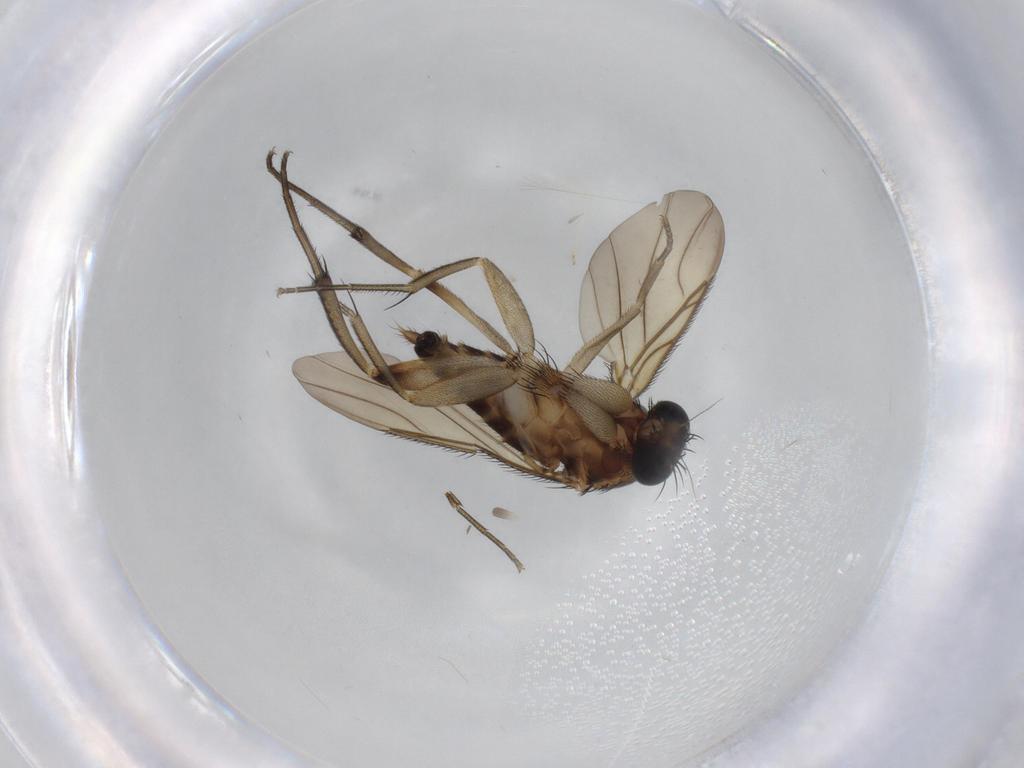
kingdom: Animalia
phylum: Arthropoda
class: Insecta
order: Diptera
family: Phoridae
